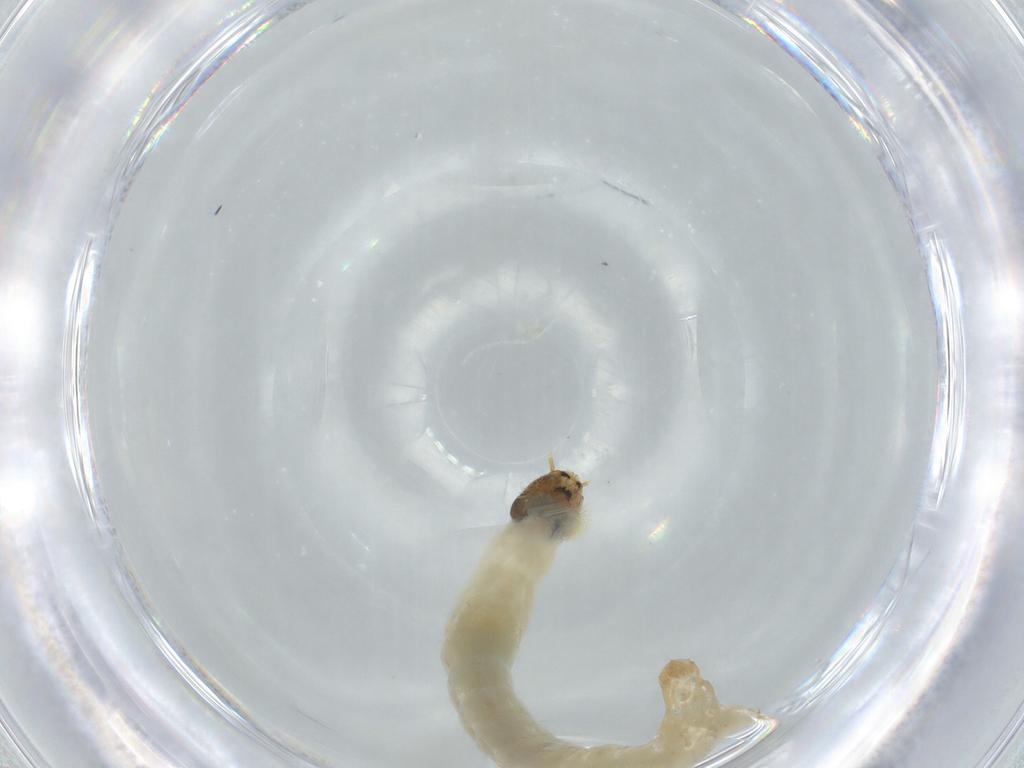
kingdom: Animalia
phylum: Arthropoda
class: Insecta
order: Diptera
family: Chironomidae
